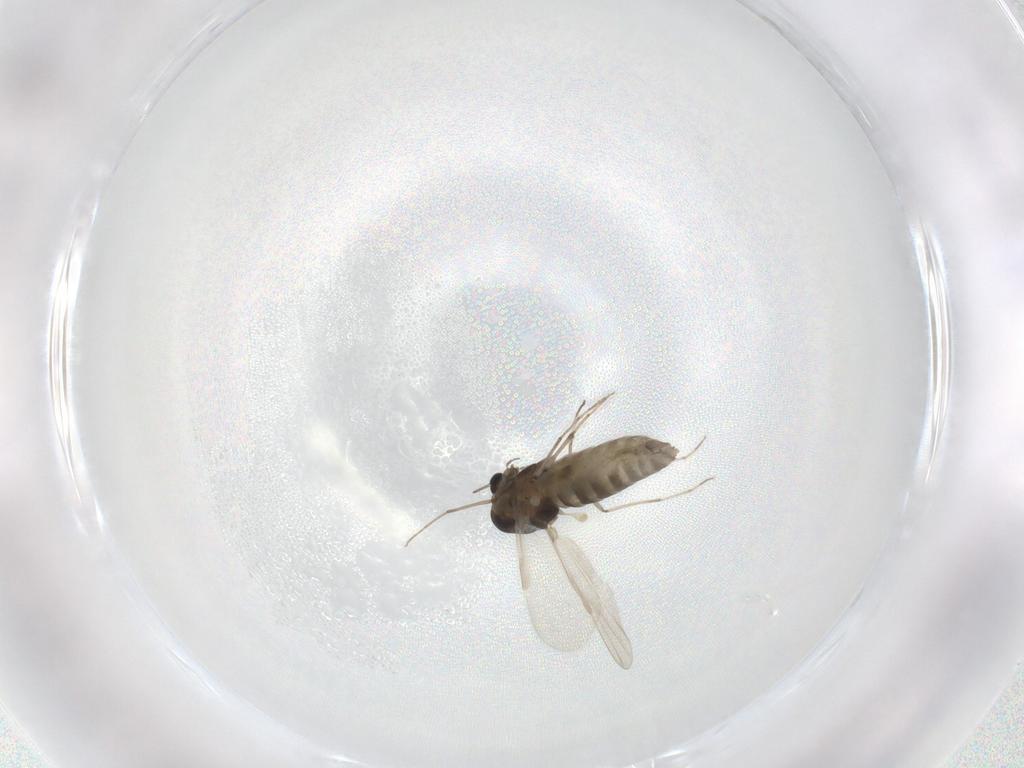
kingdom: Animalia
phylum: Arthropoda
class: Insecta
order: Diptera
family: Chironomidae
